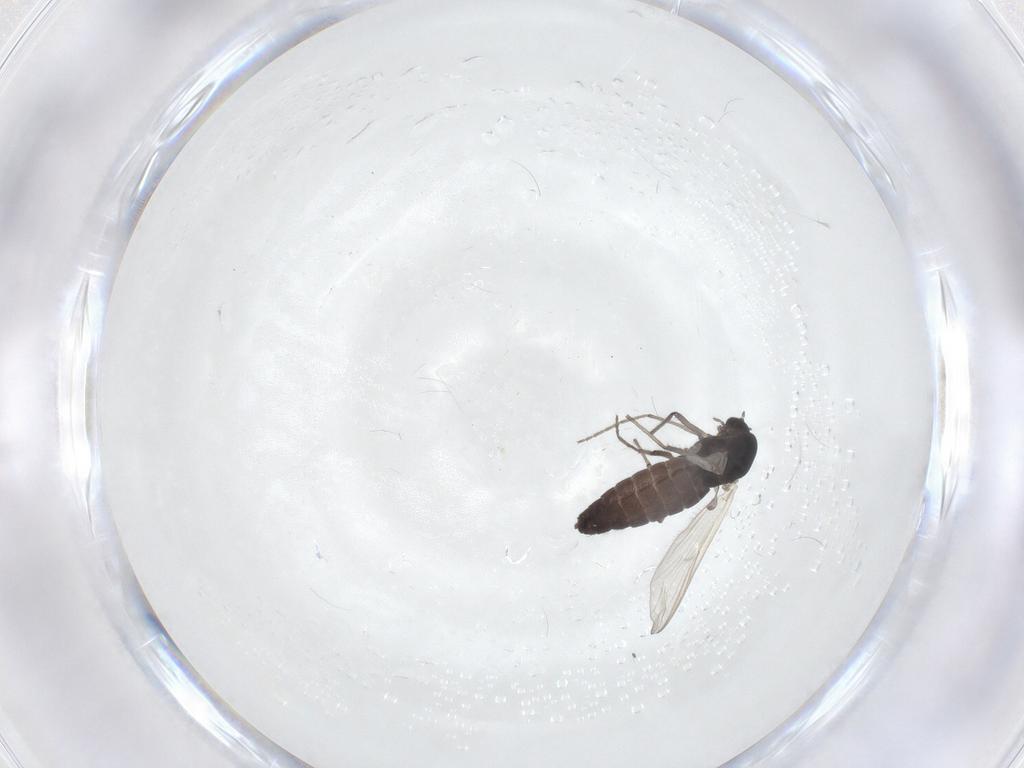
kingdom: Animalia
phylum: Arthropoda
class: Insecta
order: Diptera
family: Chironomidae
